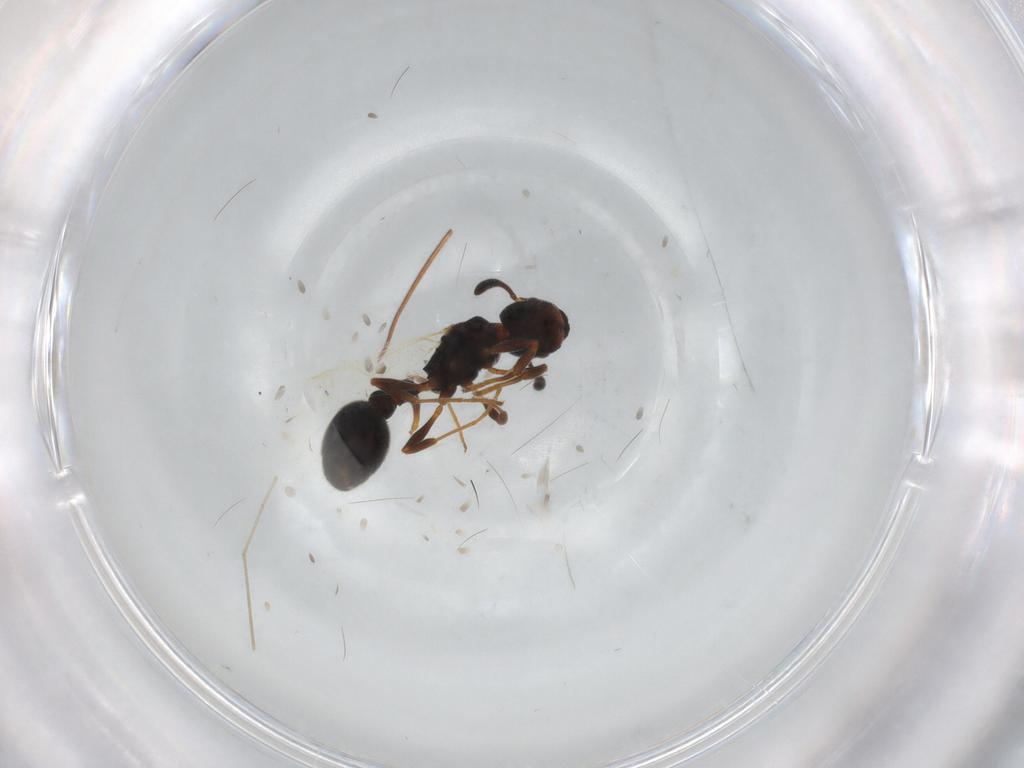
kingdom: Animalia
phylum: Arthropoda
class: Insecta
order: Hymenoptera
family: Formicidae
